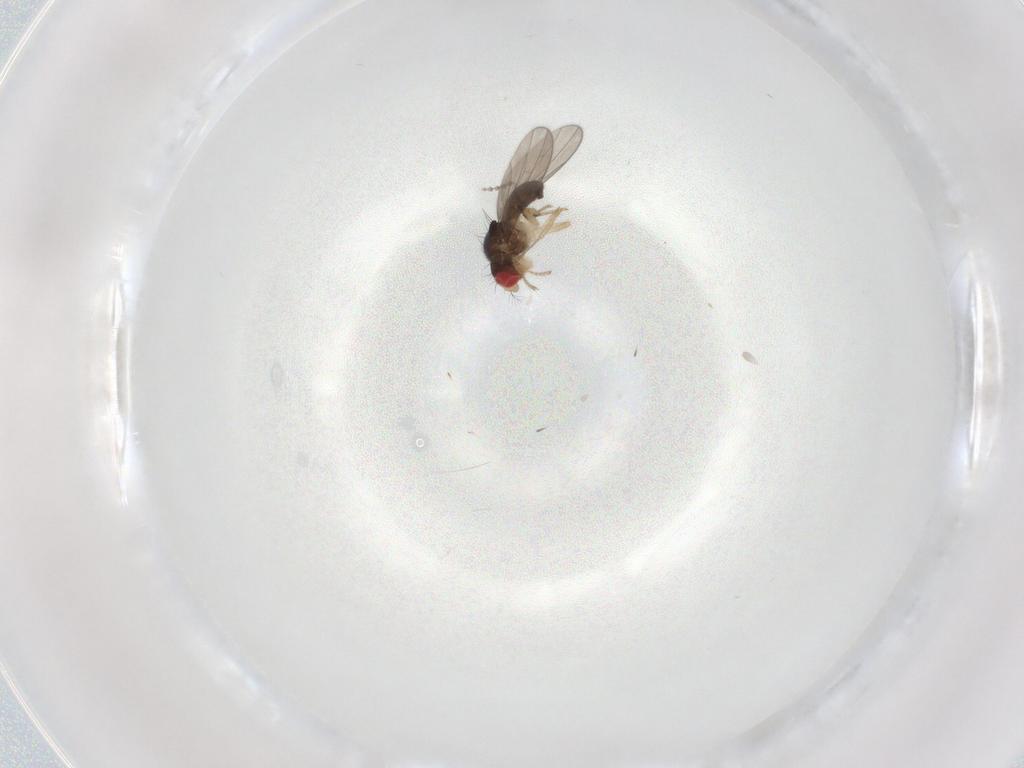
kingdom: Animalia
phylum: Arthropoda
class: Insecta
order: Diptera
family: Drosophilidae
